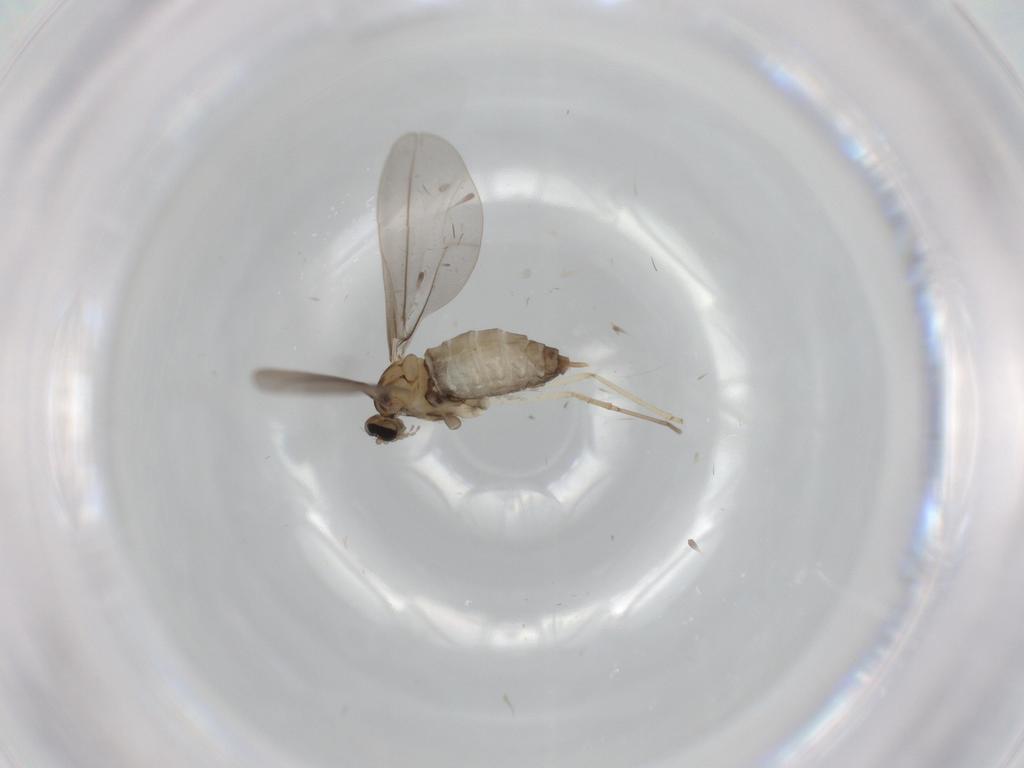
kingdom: Animalia
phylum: Arthropoda
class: Insecta
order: Diptera
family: Cecidomyiidae
